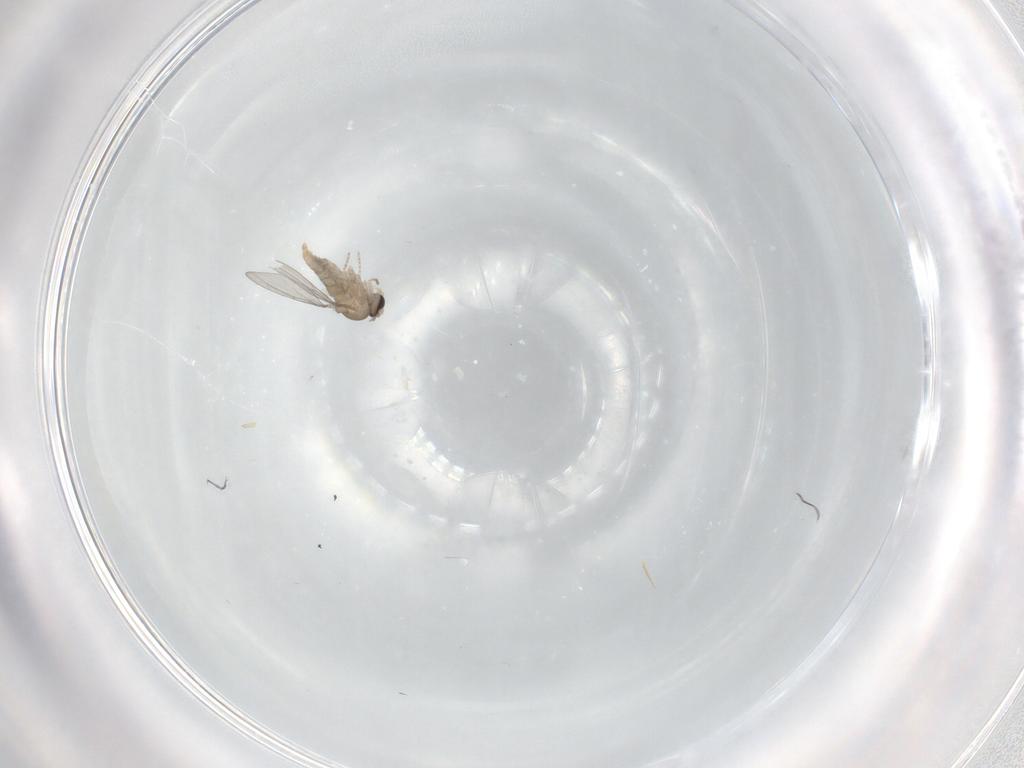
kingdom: Animalia
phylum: Arthropoda
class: Insecta
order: Diptera
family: Cecidomyiidae
